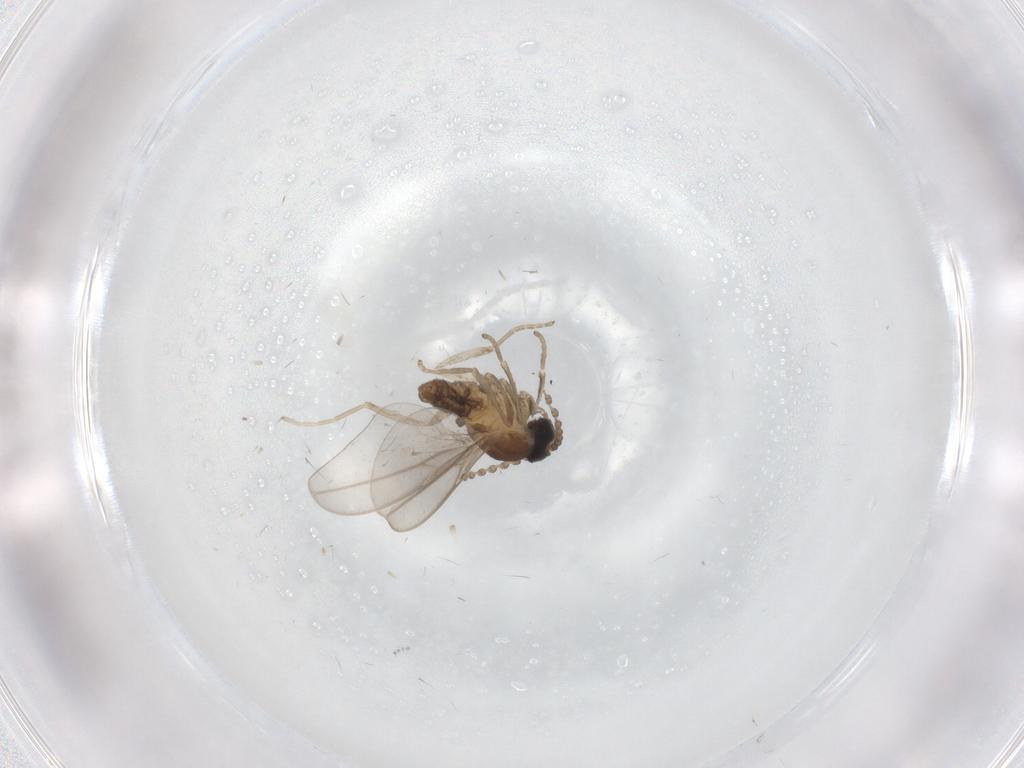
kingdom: Animalia
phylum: Arthropoda
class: Insecta
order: Diptera
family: Cecidomyiidae
